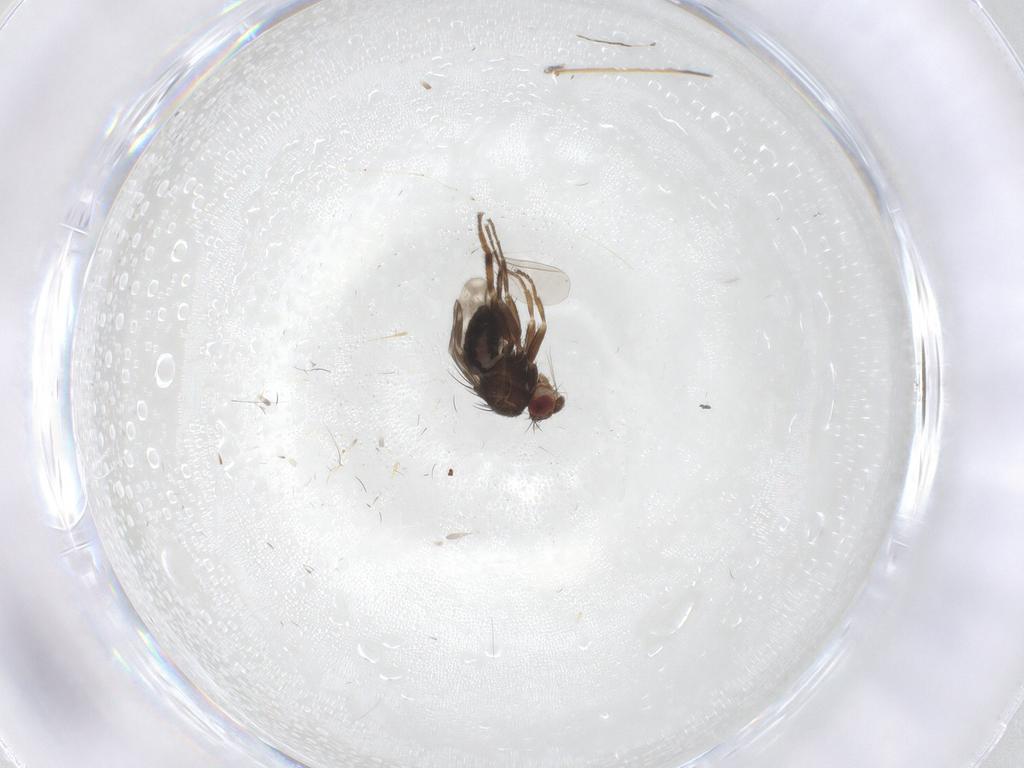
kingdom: Animalia
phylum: Arthropoda
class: Insecta
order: Diptera
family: Sphaeroceridae
